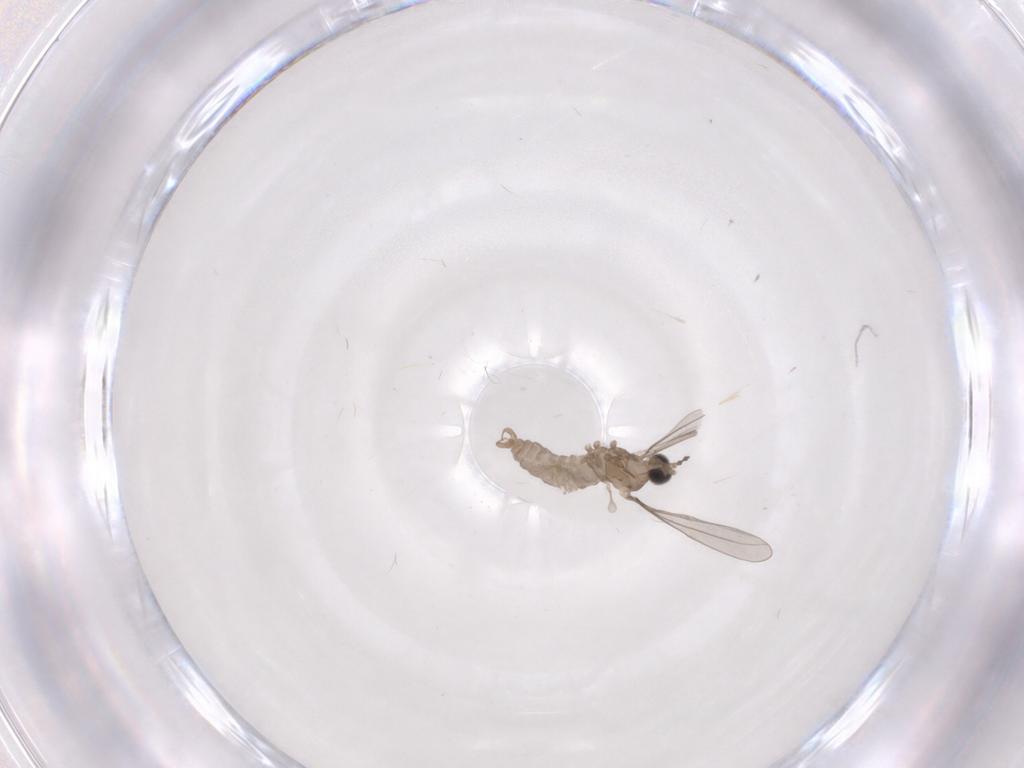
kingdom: Animalia
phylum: Arthropoda
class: Insecta
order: Diptera
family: Cecidomyiidae
